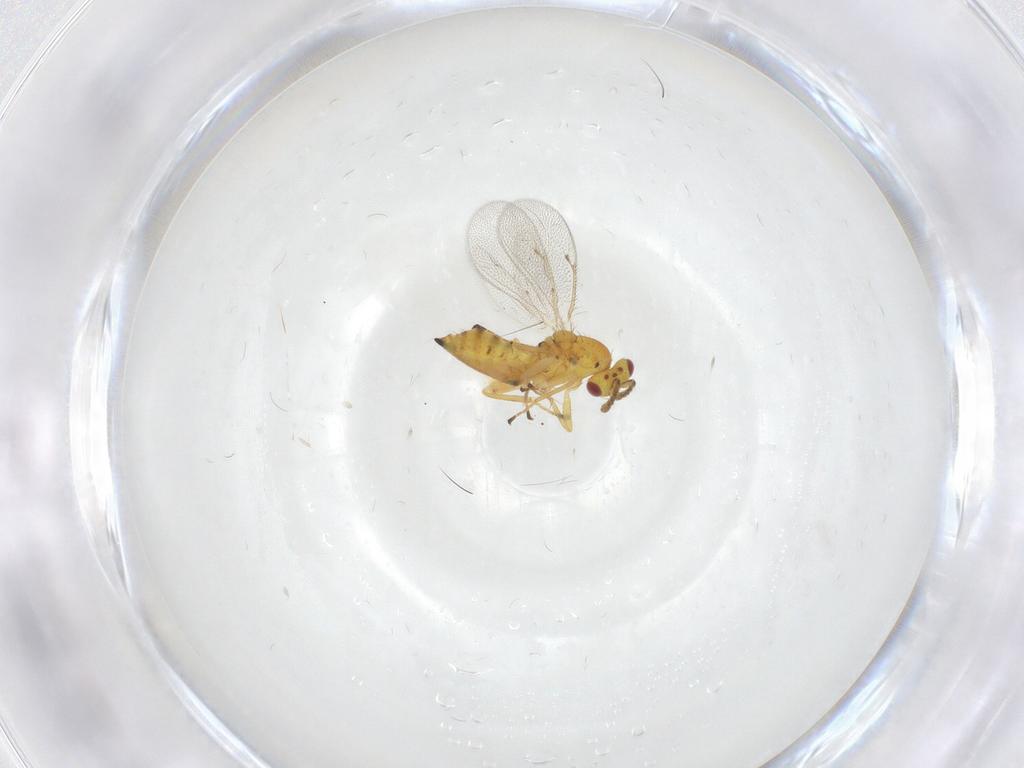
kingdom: Animalia
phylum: Arthropoda
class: Insecta
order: Hymenoptera
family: Eulophidae
